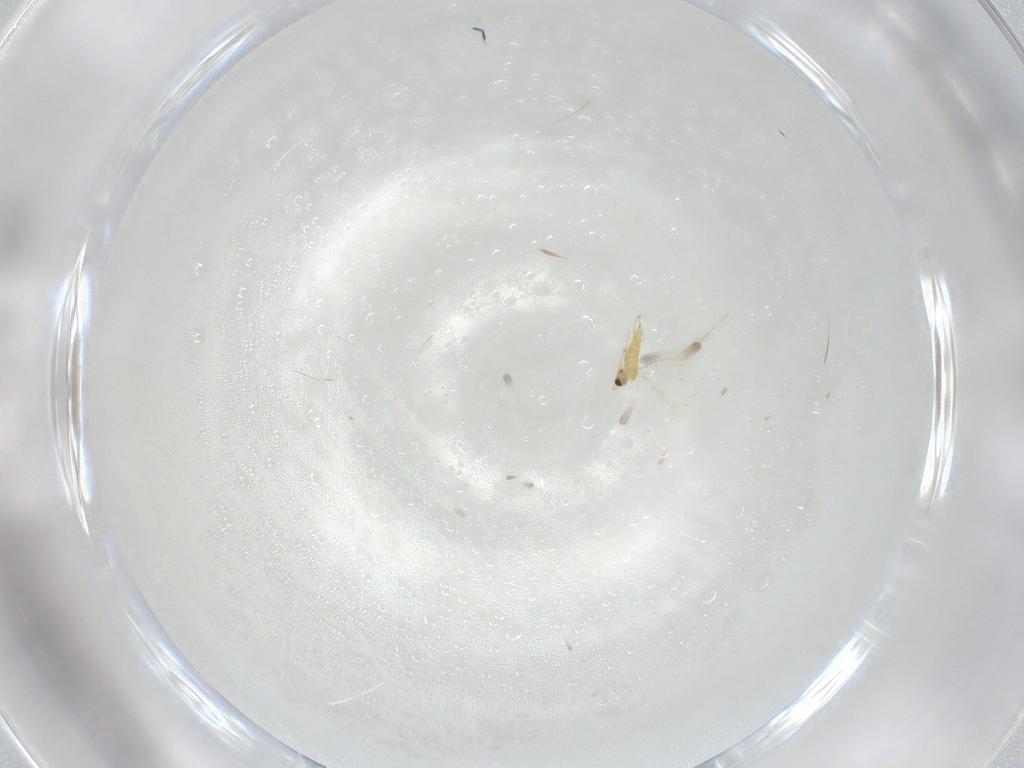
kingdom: Animalia
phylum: Arthropoda
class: Insecta
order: Hymenoptera
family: Mymaridae
